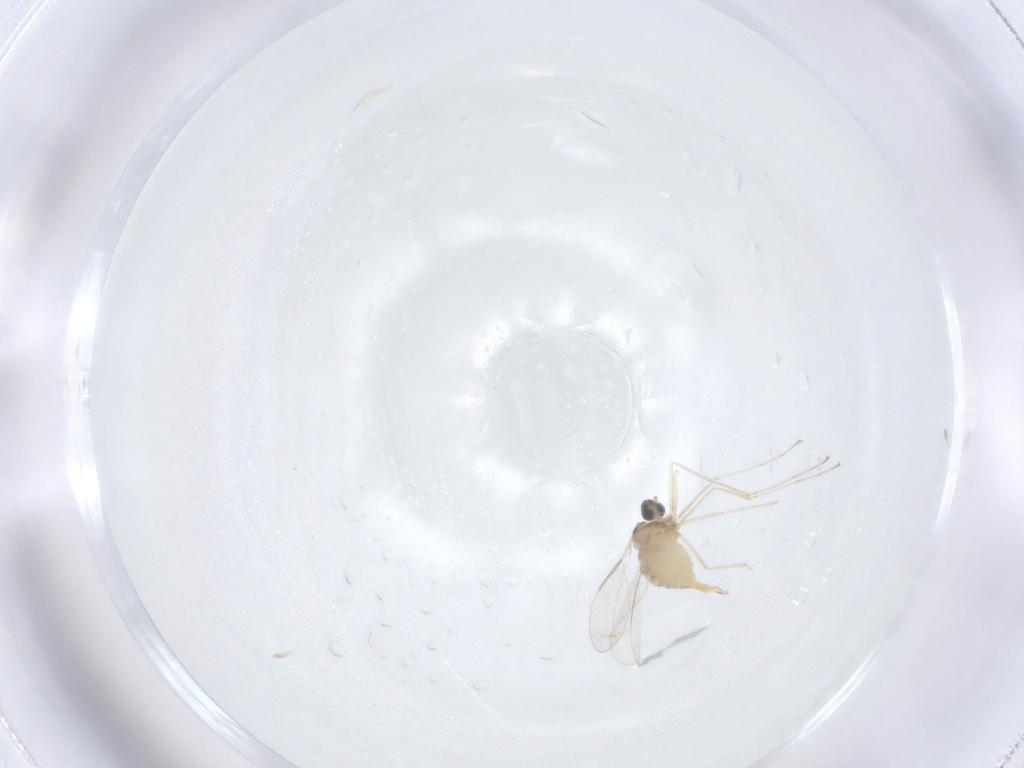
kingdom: Animalia
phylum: Arthropoda
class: Insecta
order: Diptera
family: Cecidomyiidae
